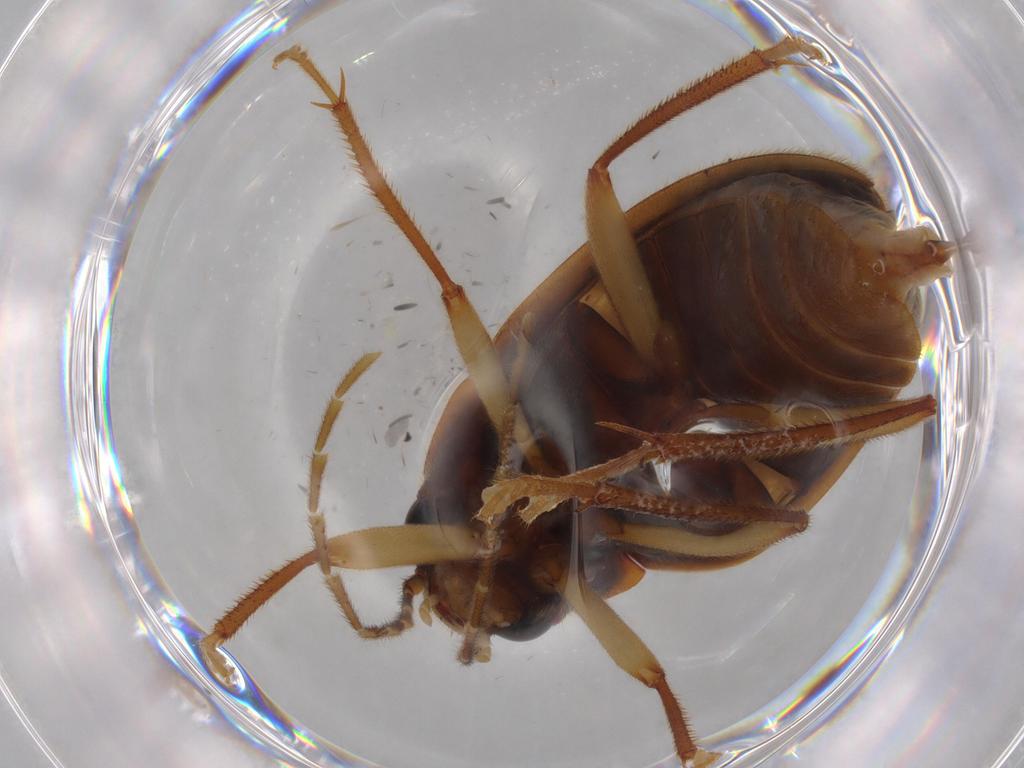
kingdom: Animalia
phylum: Arthropoda
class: Insecta
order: Coleoptera
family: Ptilodactylidae
